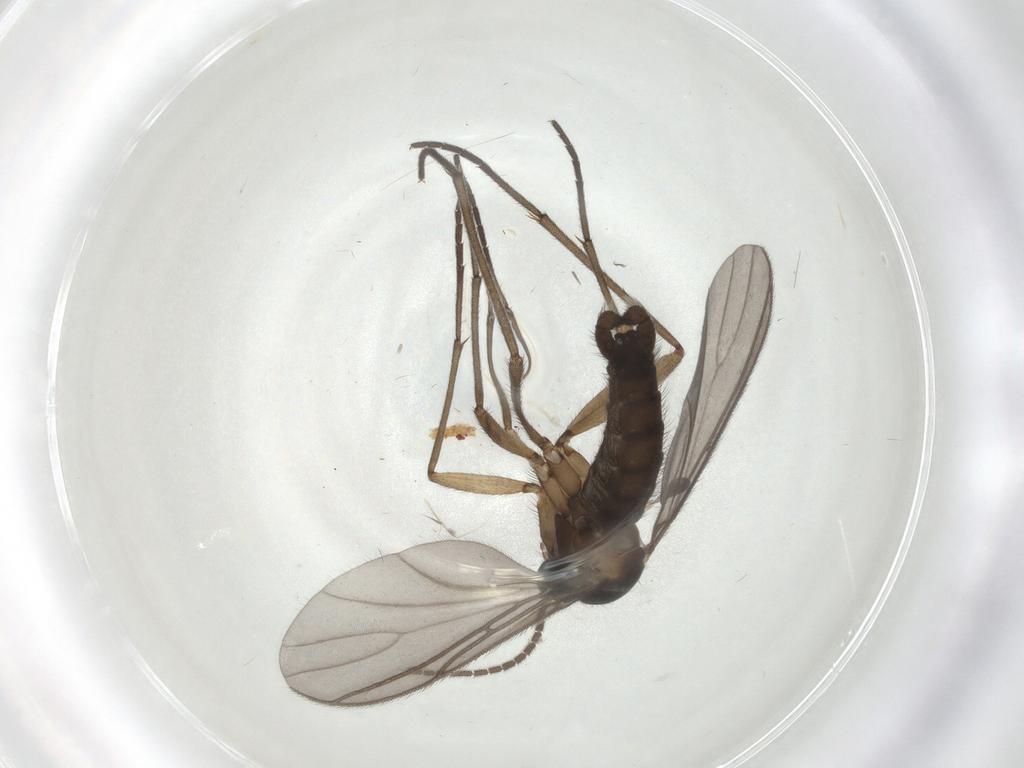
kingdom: Animalia
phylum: Arthropoda
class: Insecta
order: Diptera
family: Sciaridae
